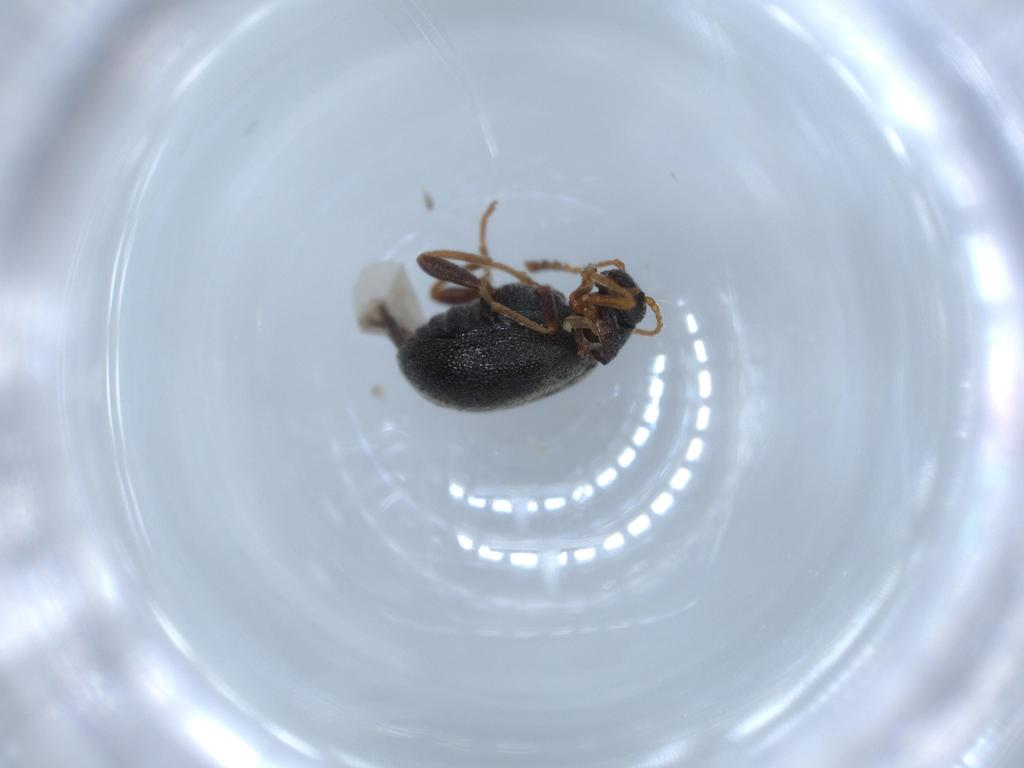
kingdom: Animalia
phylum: Arthropoda
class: Insecta
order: Coleoptera
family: Aderidae
